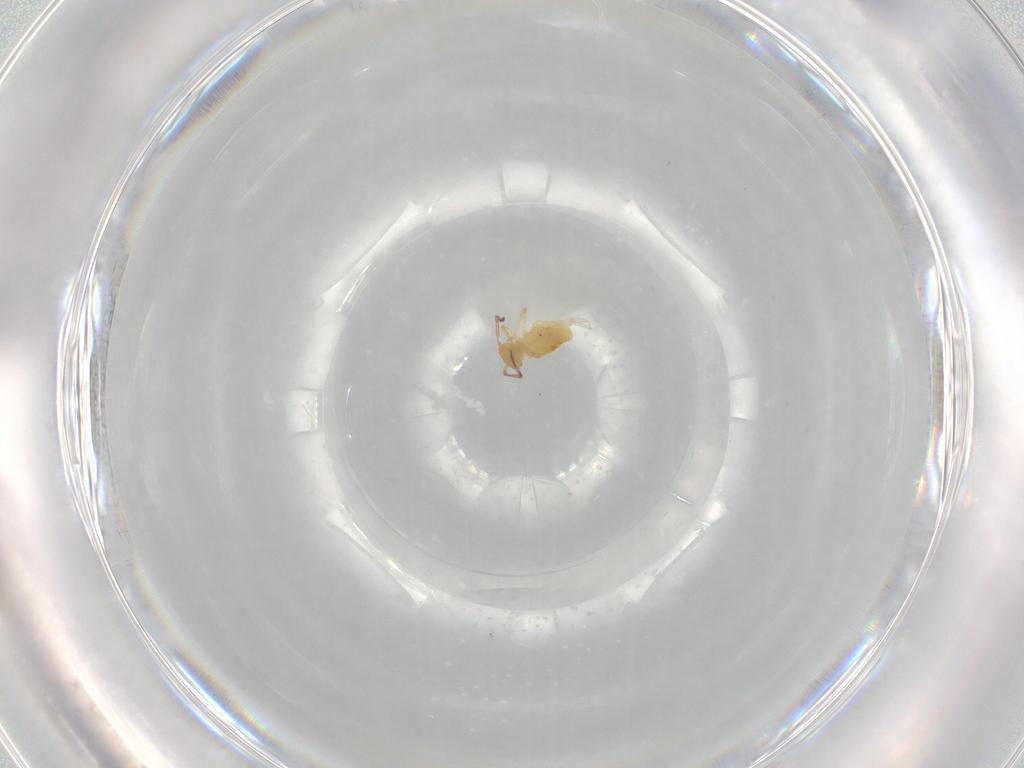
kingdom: Animalia
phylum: Arthropoda
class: Collembola
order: Symphypleona
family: Bourletiellidae
